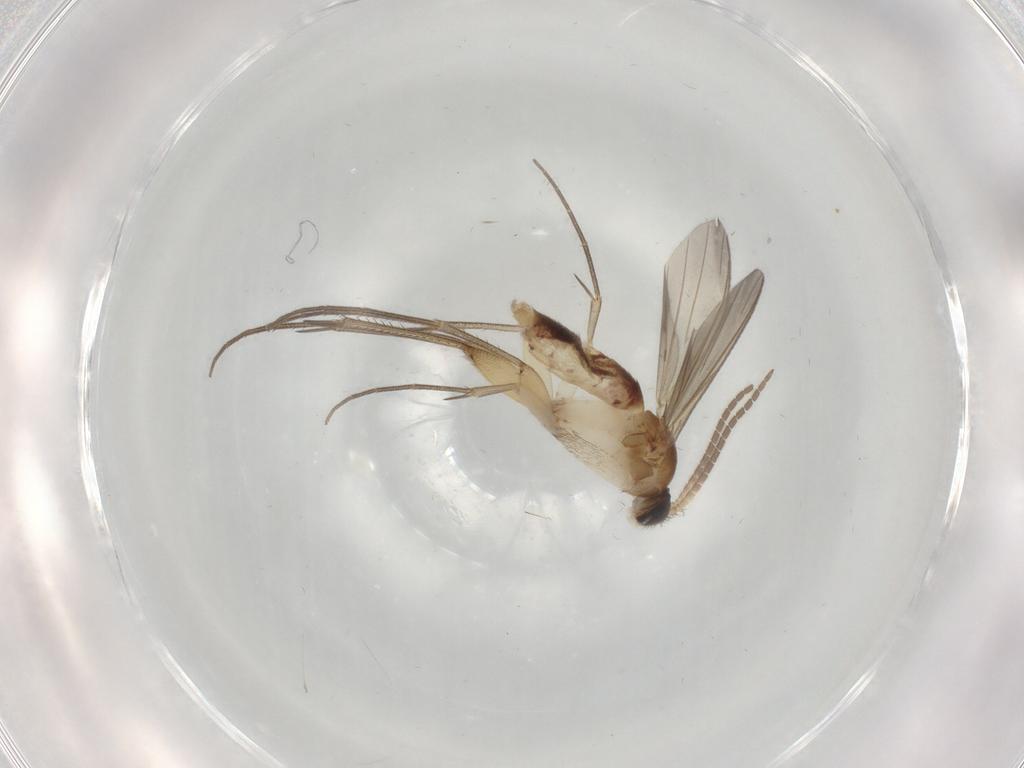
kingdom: Animalia
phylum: Arthropoda
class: Insecta
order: Diptera
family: Mycetophilidae
